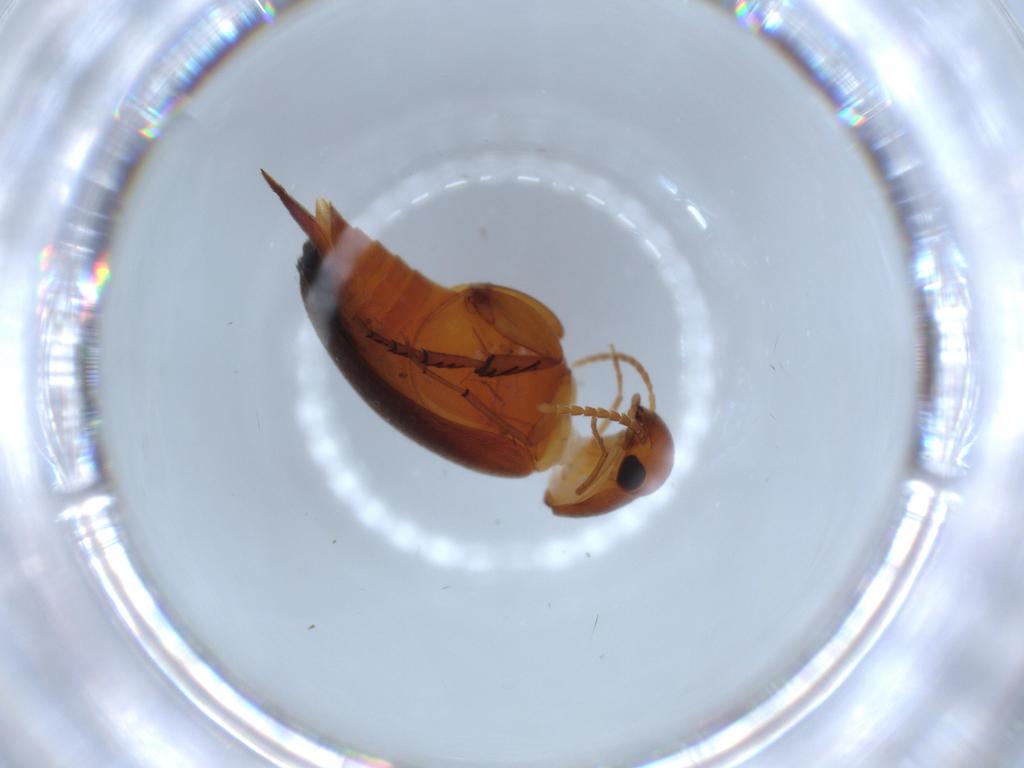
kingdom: Animalia
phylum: Arthropoda
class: Insecta
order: Coleoptera
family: Mordellidae
